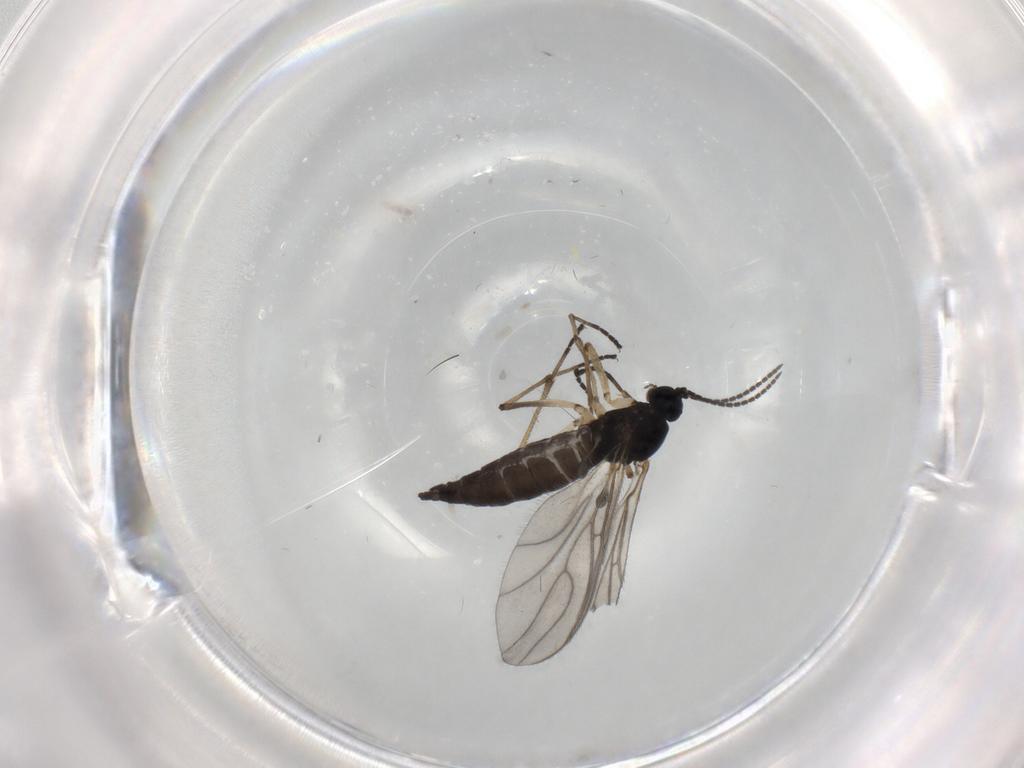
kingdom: Animalia
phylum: Arthropoda
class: Insecta
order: Diptera
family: Sciaridae
